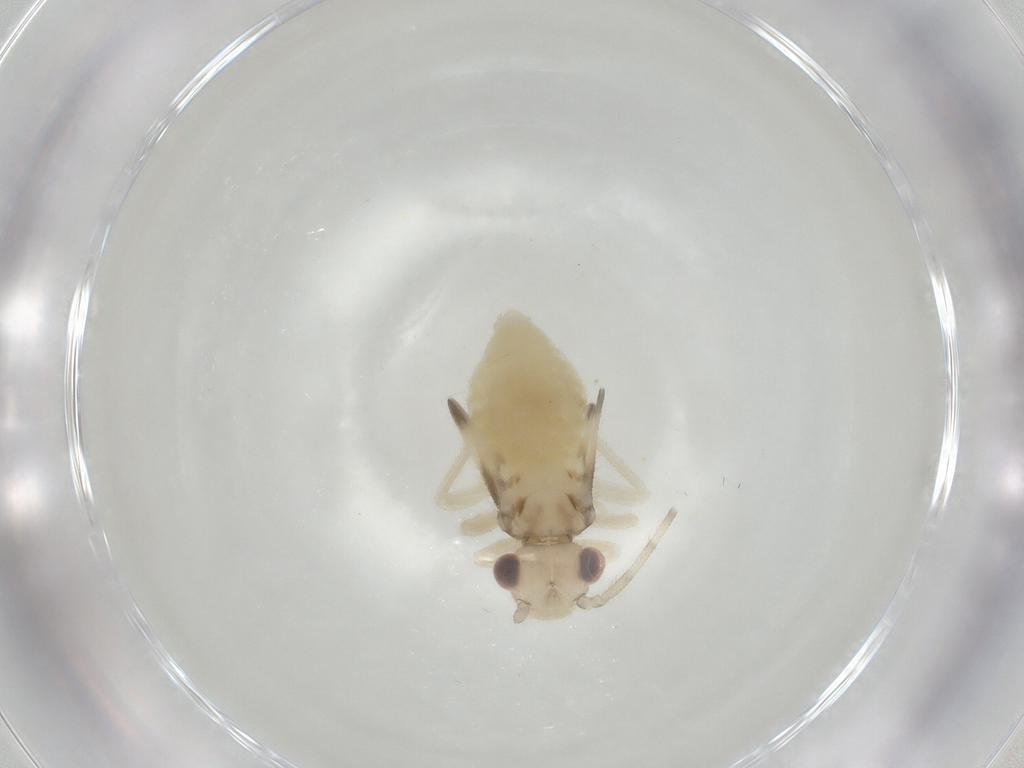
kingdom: Animalia
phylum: Arthropoda
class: Insecta
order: Psocodea
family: Amphipsocidae
